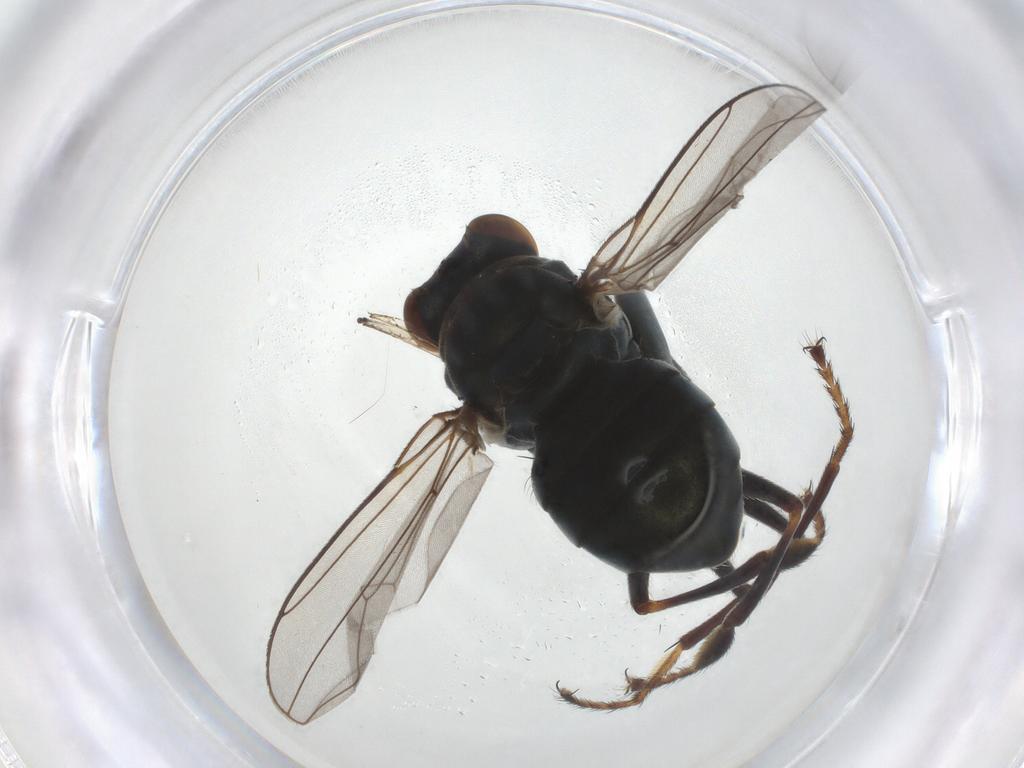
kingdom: Animalia
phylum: Arthropoda
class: Insecta
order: Diptera
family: Ephydridae
